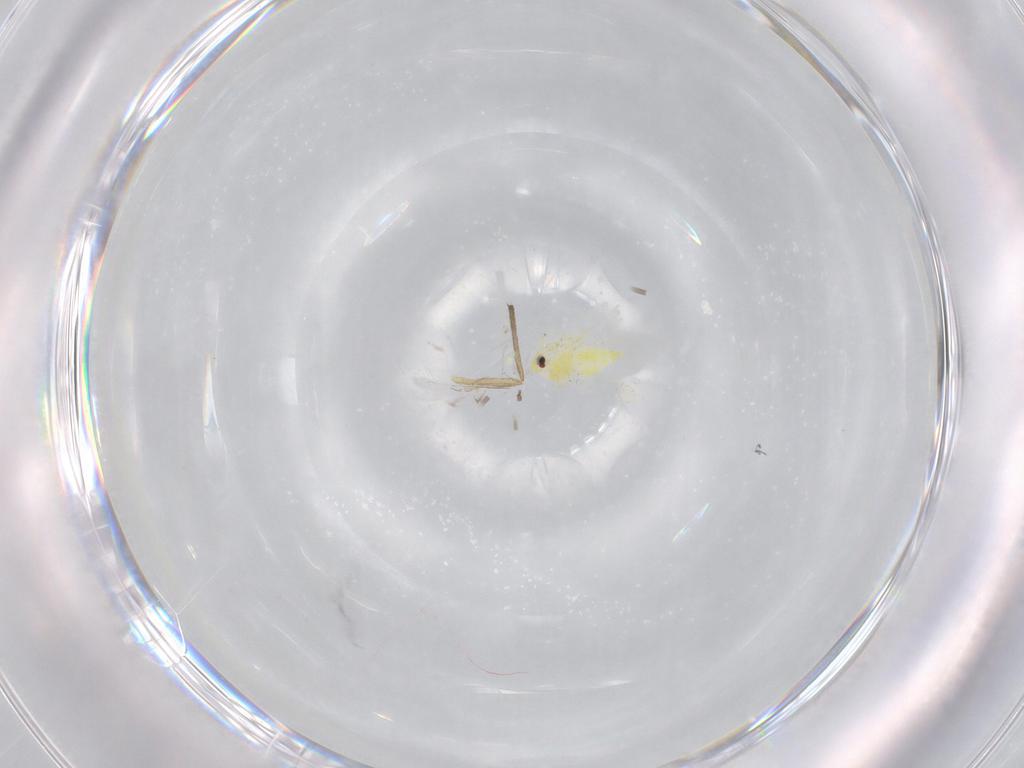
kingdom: Animalia
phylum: Arthropoda
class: Insecta
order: Hemiptera
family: Aleyrodidae
